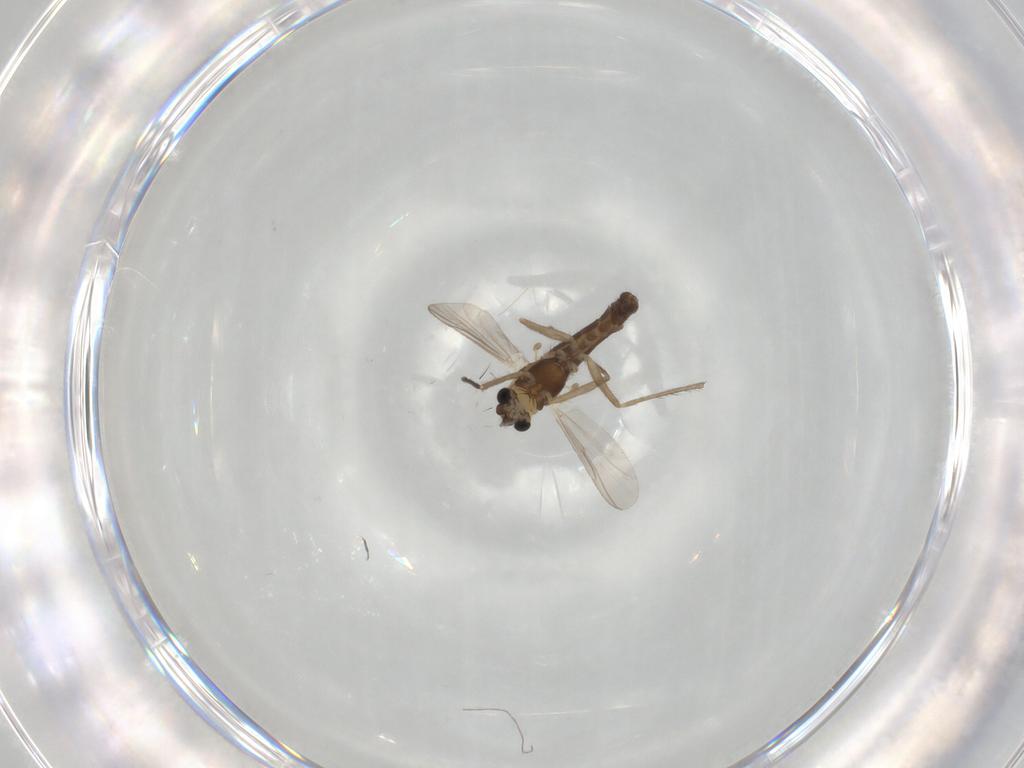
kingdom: Animalia
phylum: Arthropoda
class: Insecta
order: Diptera
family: Chironomidae
